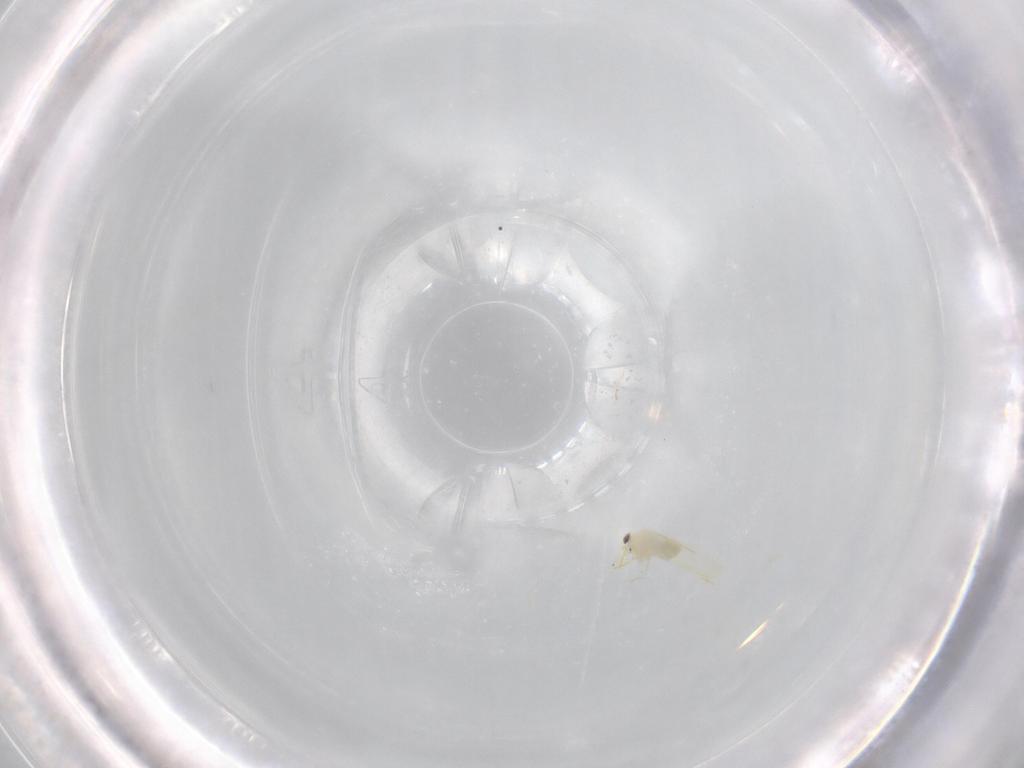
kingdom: Animalia
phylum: Arthropoda
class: Insecta
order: Hemiptera
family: Aleyrodidae
